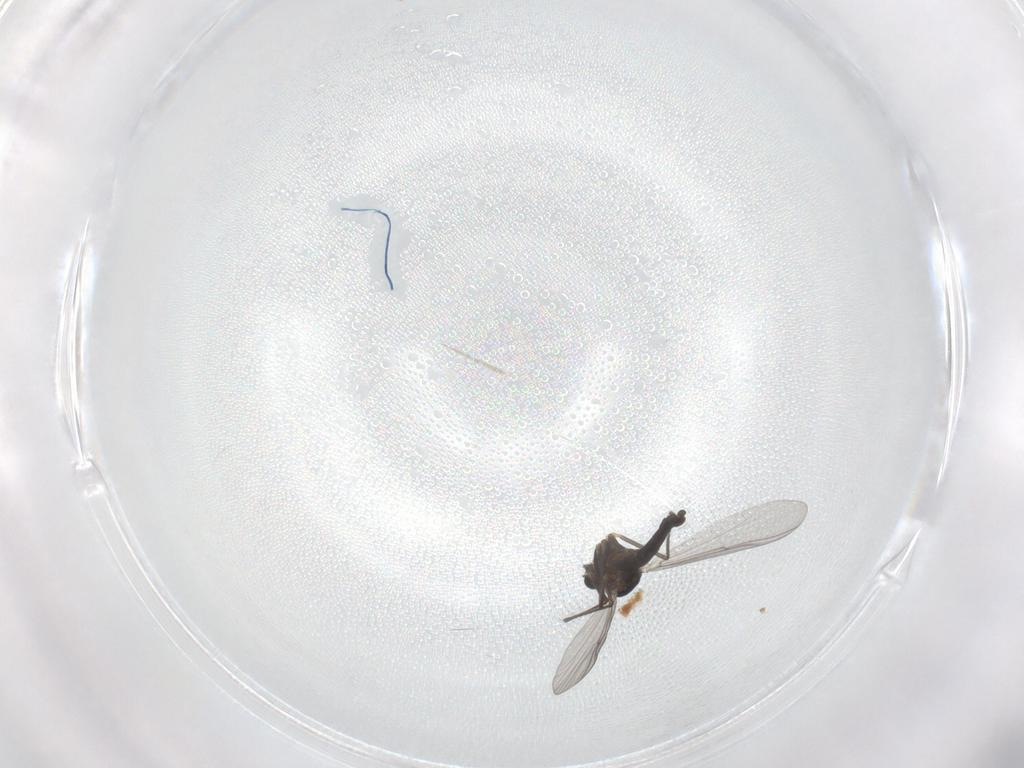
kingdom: Animalia
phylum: Arthropoda
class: Insecta
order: Diptera
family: Chironomidae
